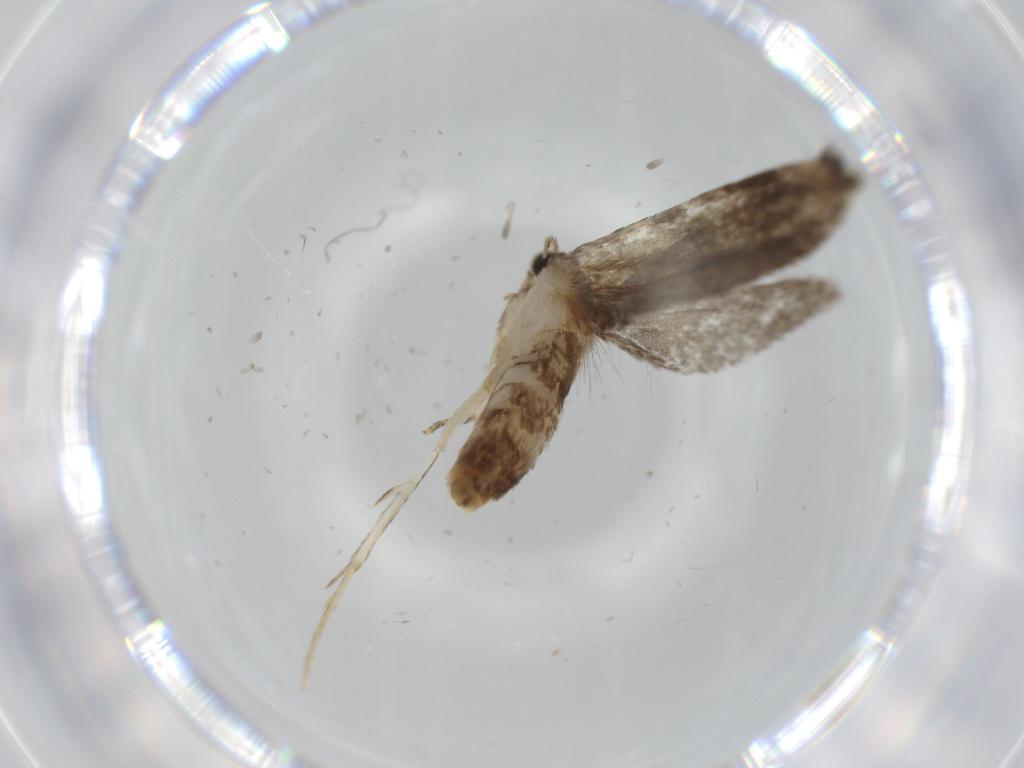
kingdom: Animalia
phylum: Arthropoda
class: Insecta
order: Lepidoptera
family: Tineidae
